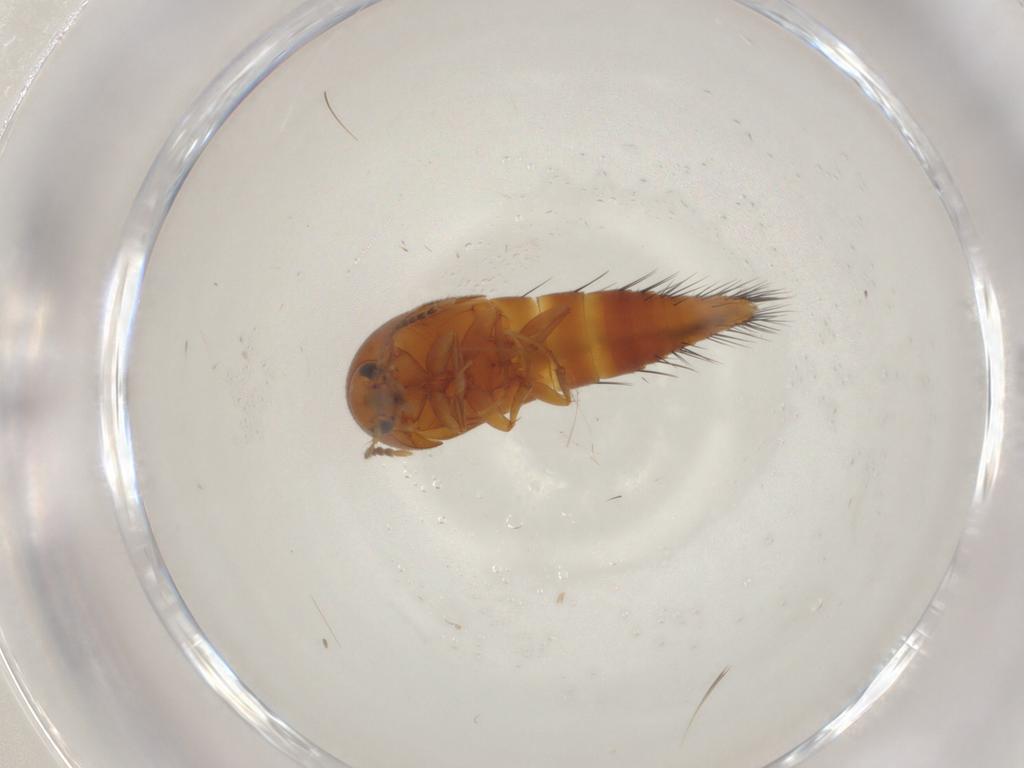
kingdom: Animalia
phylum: Arthropoda
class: Insecta
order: Coleoptera
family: Staphylinidae
